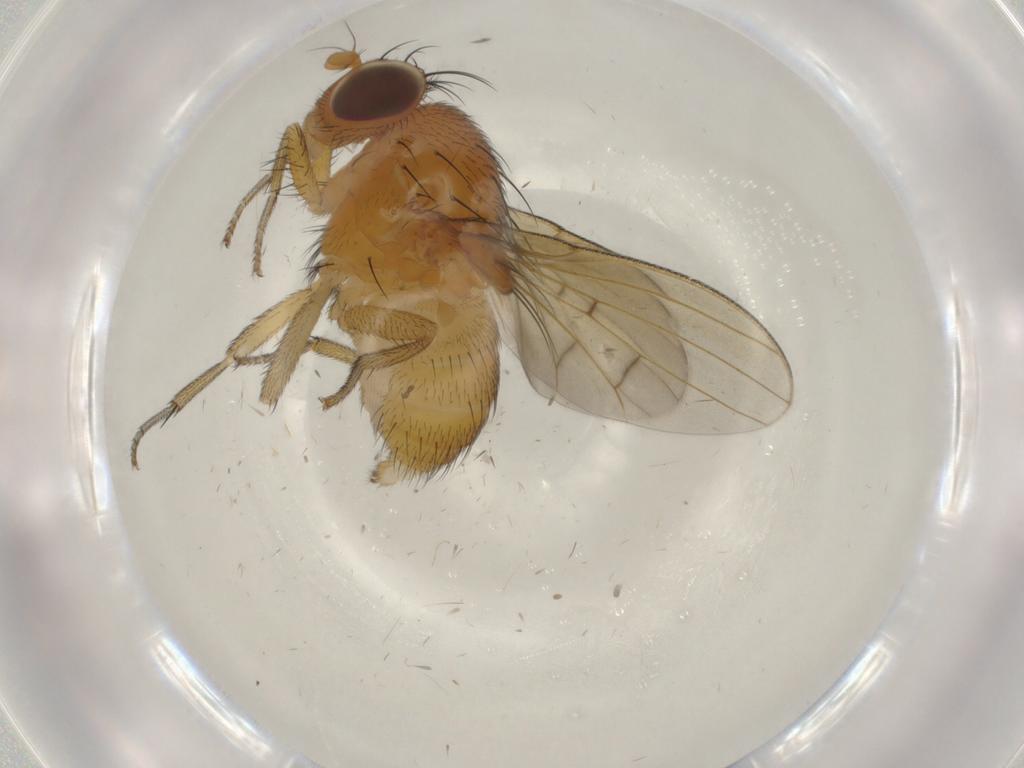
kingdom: Animalia
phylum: Arthropoda
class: Insecta
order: Diptera
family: Cecidomyiidae
